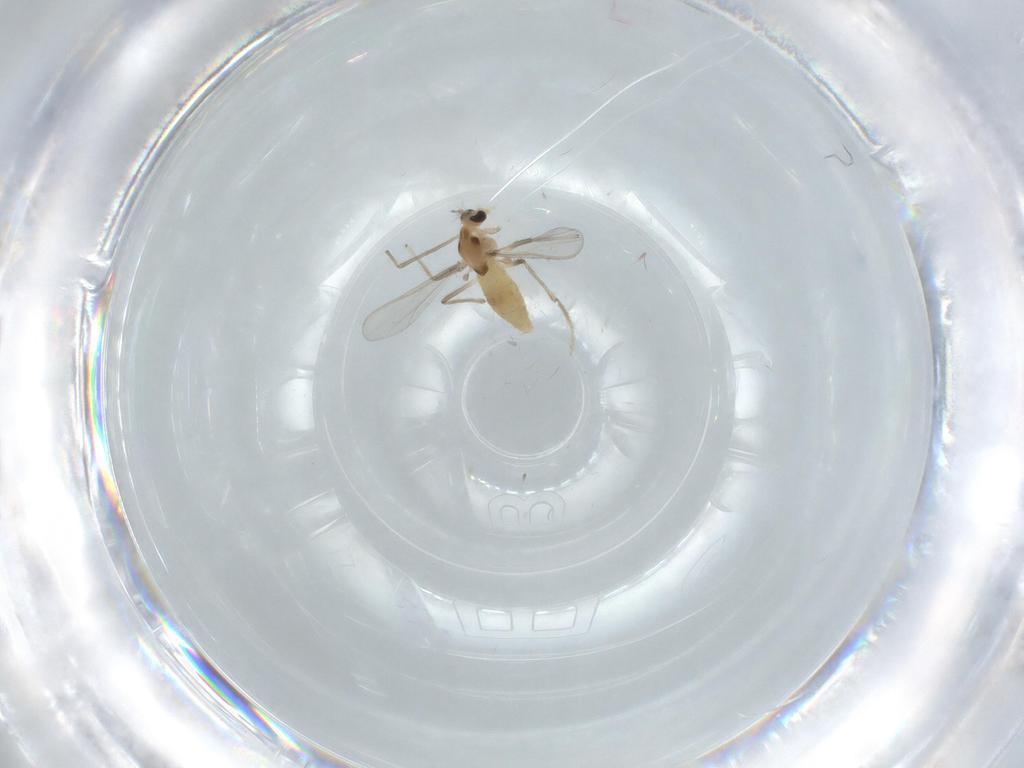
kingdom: Animalia
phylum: Arthropoda
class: Insecta
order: Diptera
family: Chironomidae
